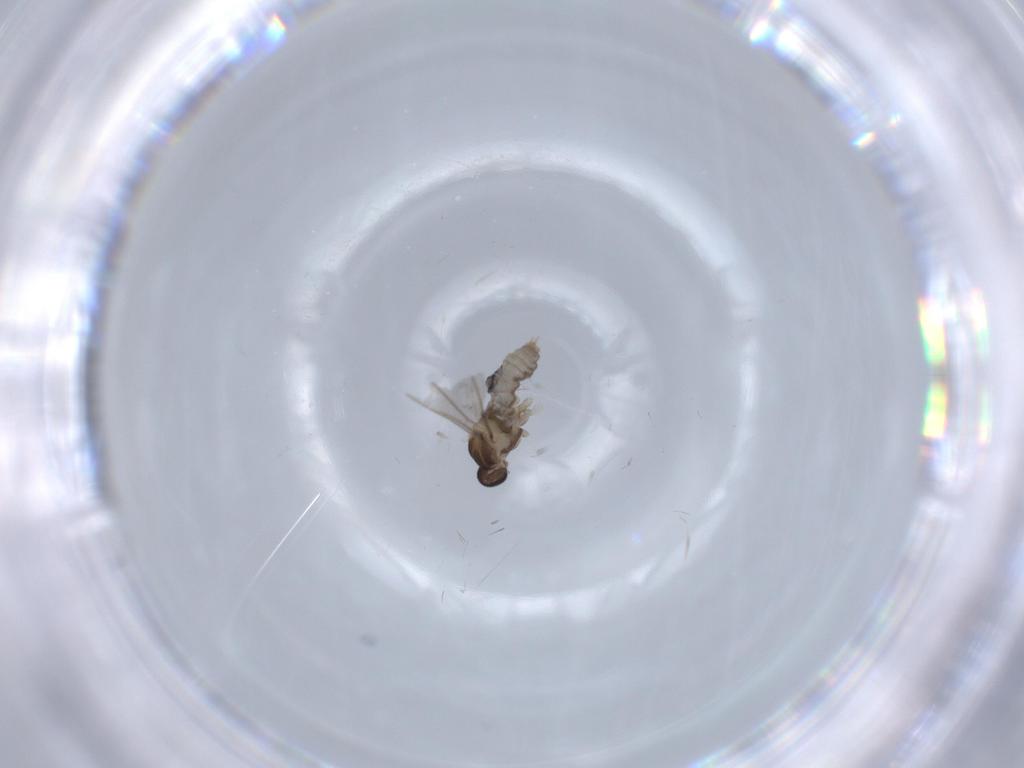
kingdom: Animalia
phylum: Arthropoda
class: Insecta
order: Diptera
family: Cecidomyiidae
